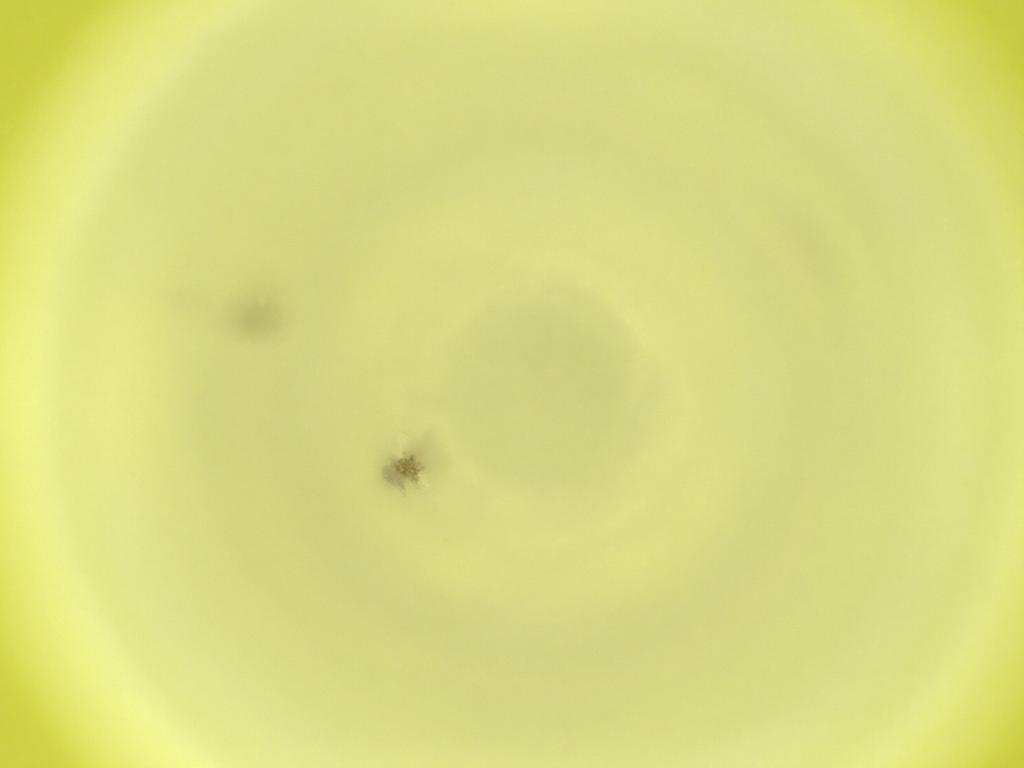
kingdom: Animalia
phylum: Arthropoda
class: Insecta
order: Diptera
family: Cecidomyiidae
